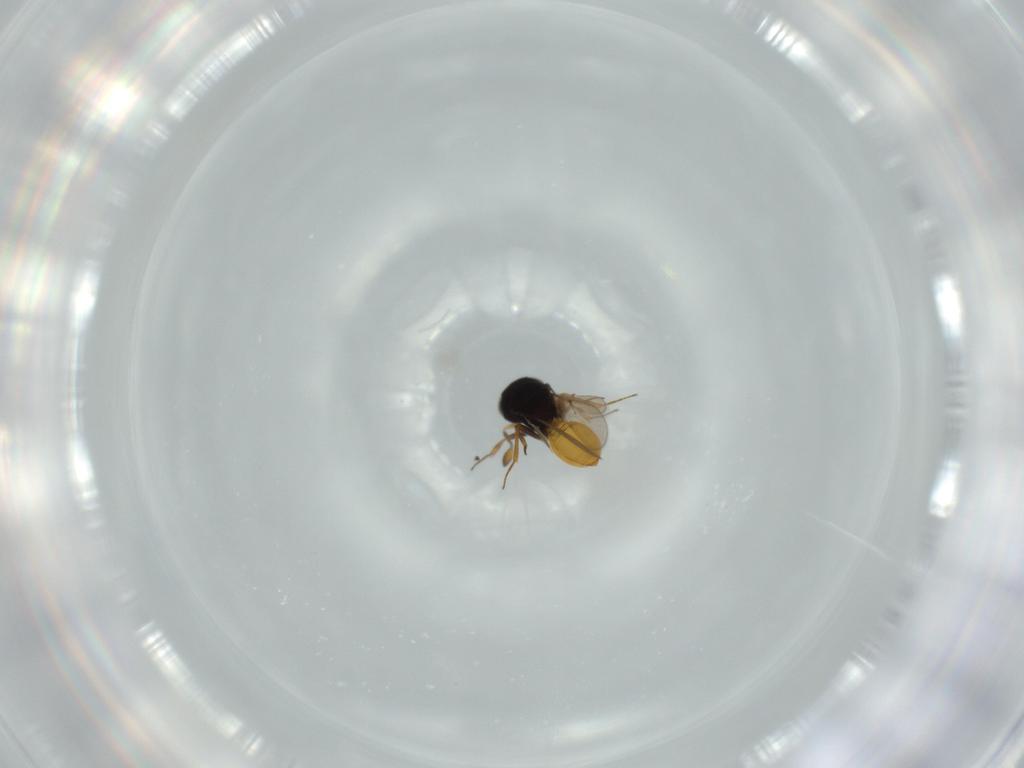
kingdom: Animalia
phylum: Arthropoda
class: Insecta
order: Hymenoptera
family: Scelionidae
